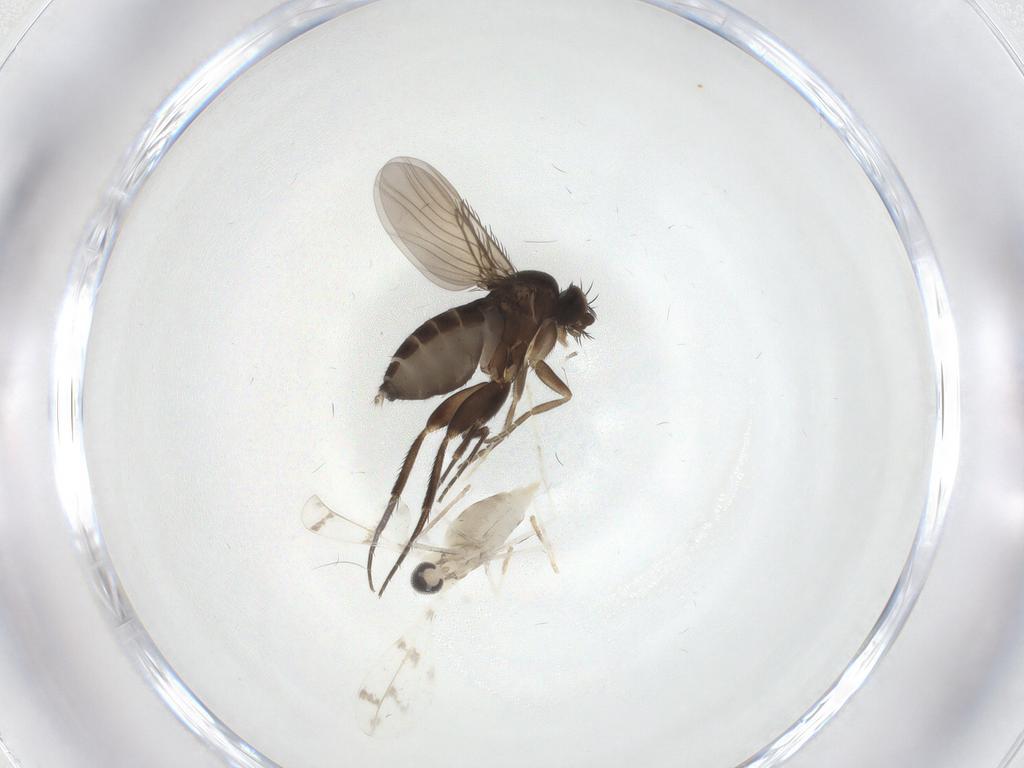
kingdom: Animalia
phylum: Arthropoda
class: Insecta
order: Diptera
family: Cecidomyiidae
